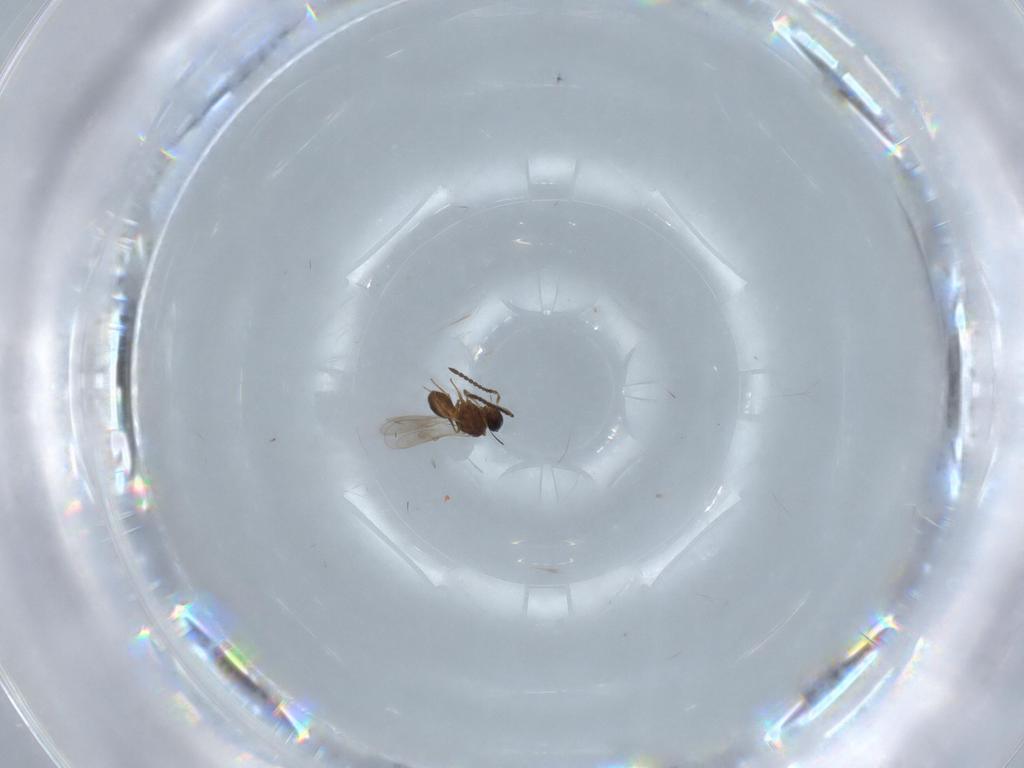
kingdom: Animalia
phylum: Arthropoda
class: Insecta
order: Hymenoptera
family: Scelionidae
